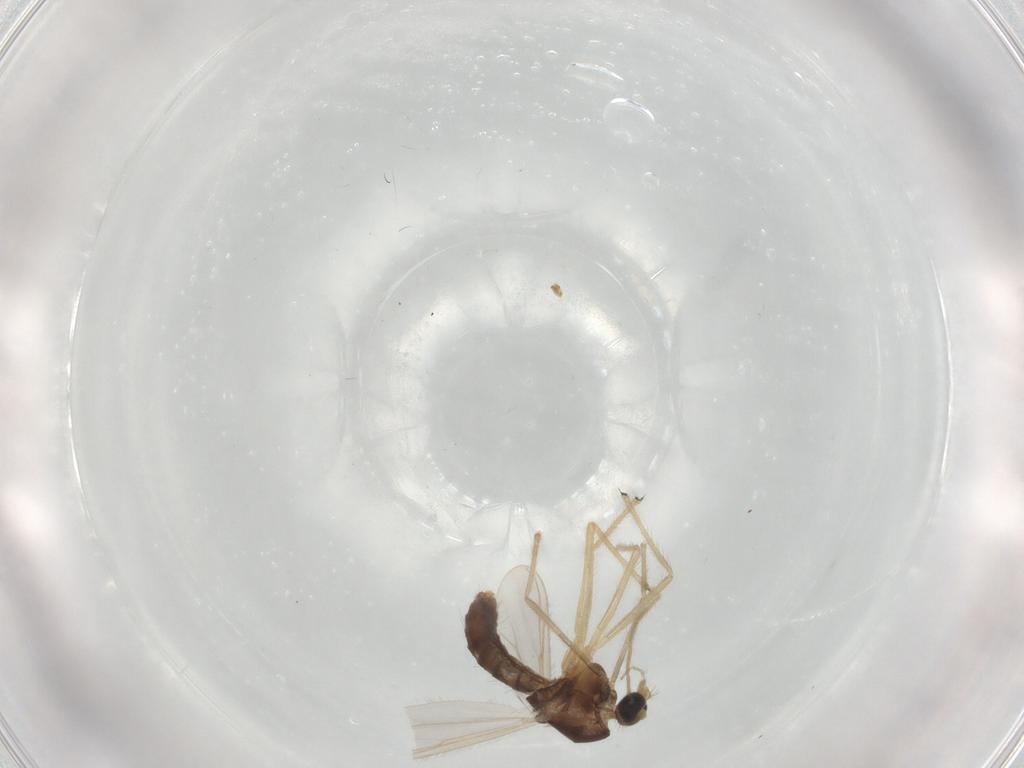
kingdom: Animalia
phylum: Arthropoda
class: Insecta
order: Diptera
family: Chironomidae
